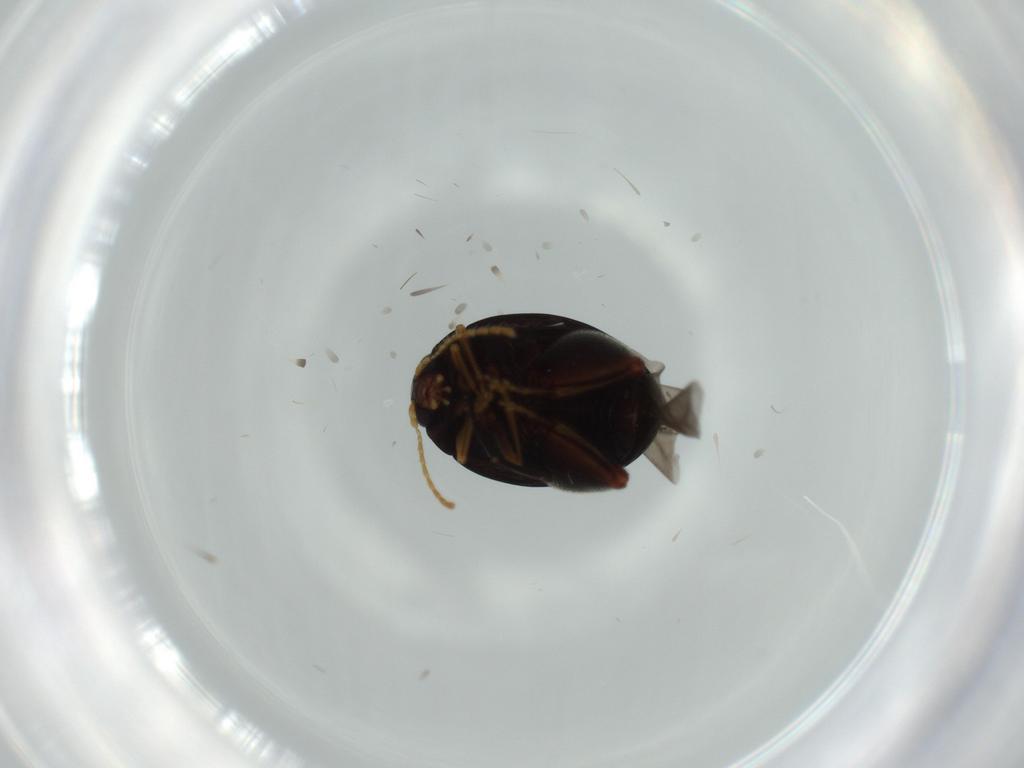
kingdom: Animalia
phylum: Arthropoda
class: Insecta
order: Coleoptera
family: Chrysomelidae
